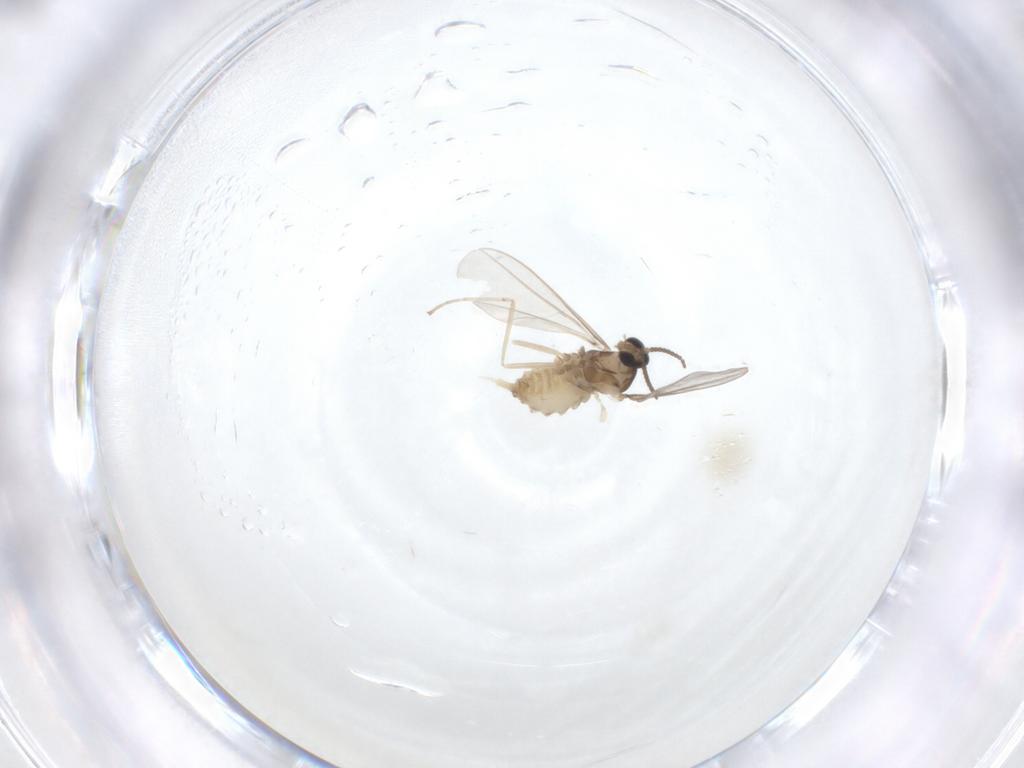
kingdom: Animalia
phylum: Arthropoda
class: Insecta
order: Diptera
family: Cecidomyiidae
